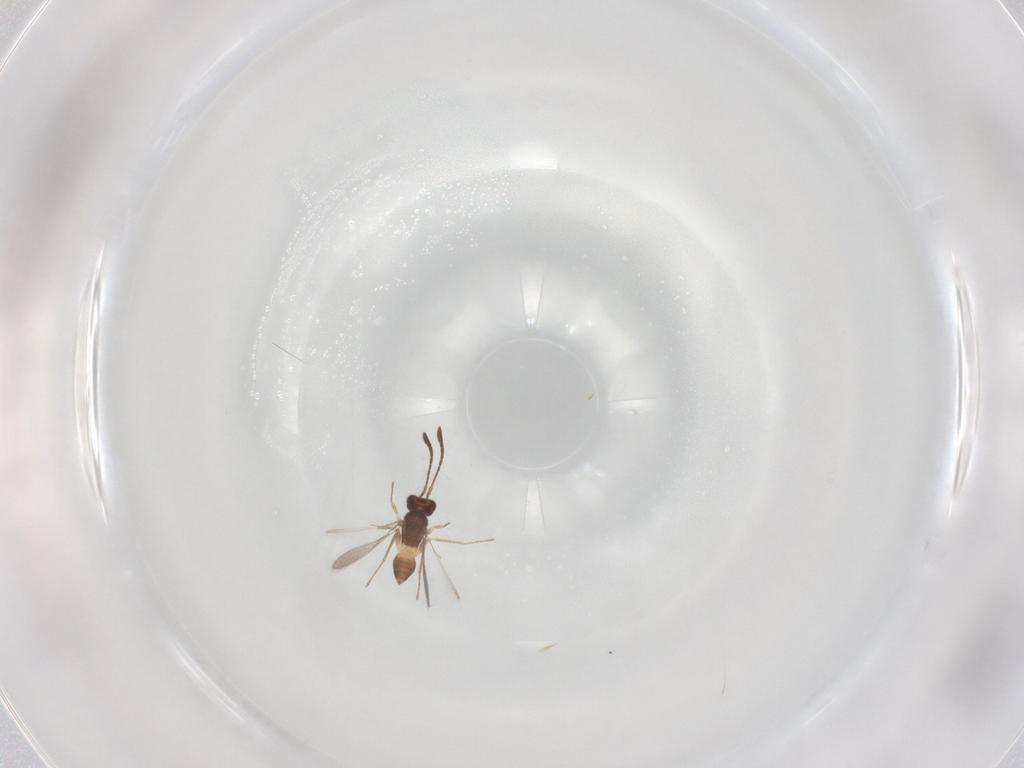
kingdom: Animalia
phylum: Arthropoda
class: Insecta
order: Hymenoptera
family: Mymaridae
